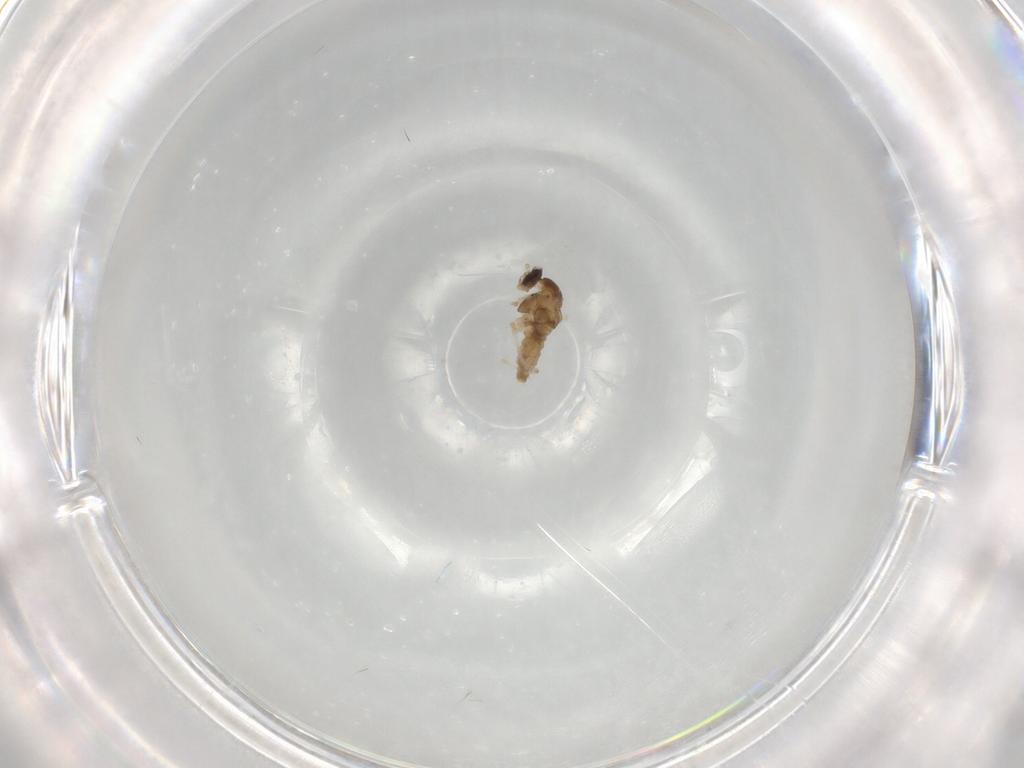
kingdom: Animalia
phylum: Arthropoda
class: Insecta
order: Diptera
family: Cecidomyiidae
